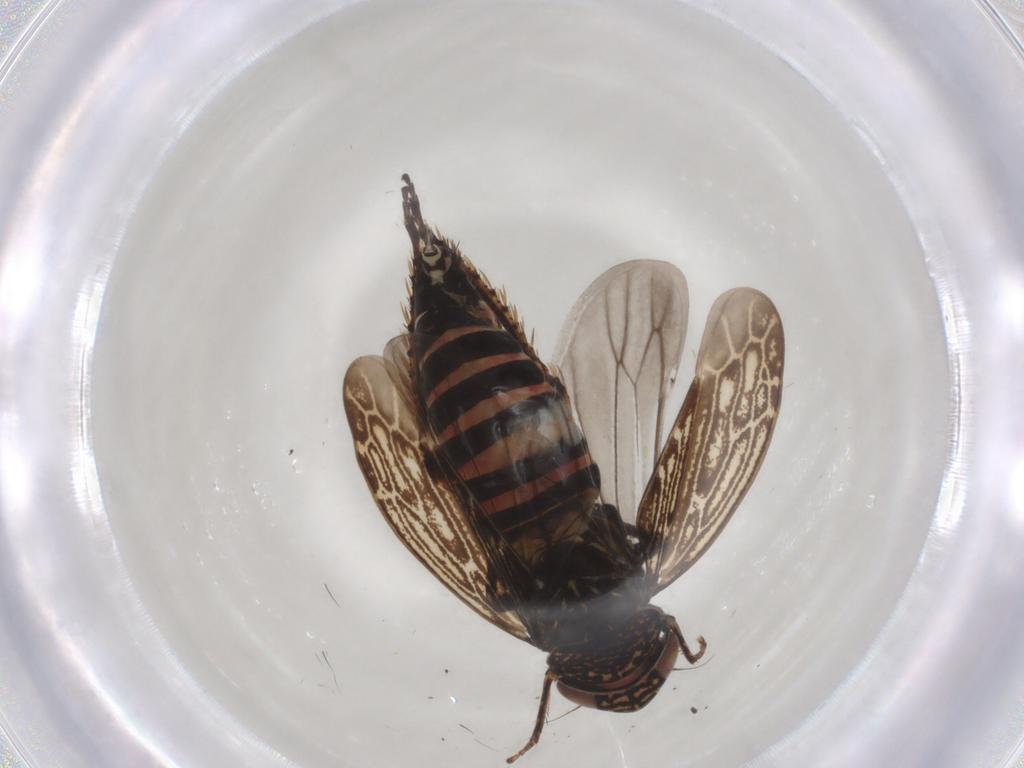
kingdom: Animalia
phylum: Arthropoda
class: Insecta
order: Hemiptera
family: Cicadellidae
